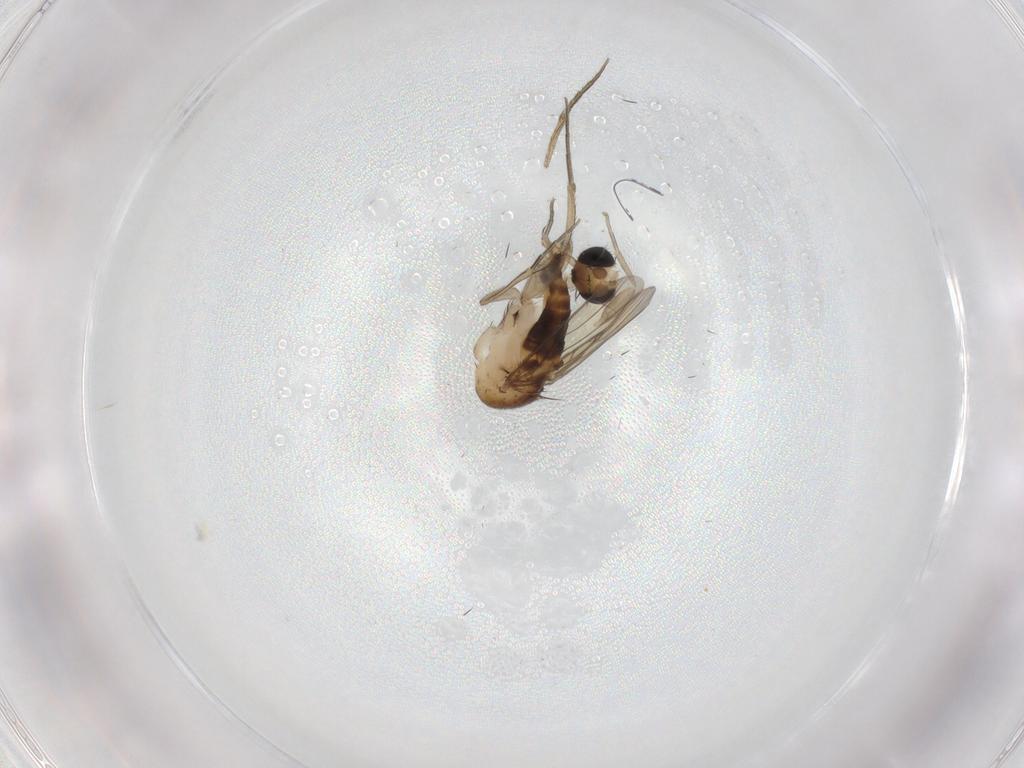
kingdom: Animalia
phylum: Arthropoda
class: Insecta
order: Diptera
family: Phoridae
